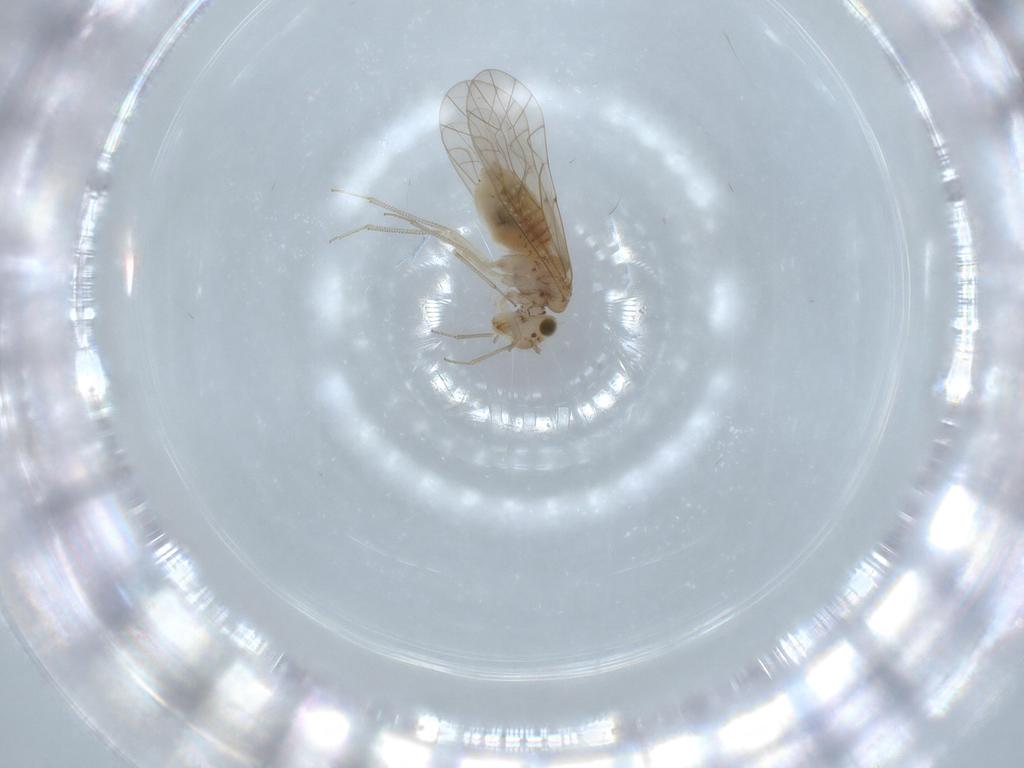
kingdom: Animalia
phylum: Arthropoda
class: Insecta
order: Psocodea
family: Lachesillidae
